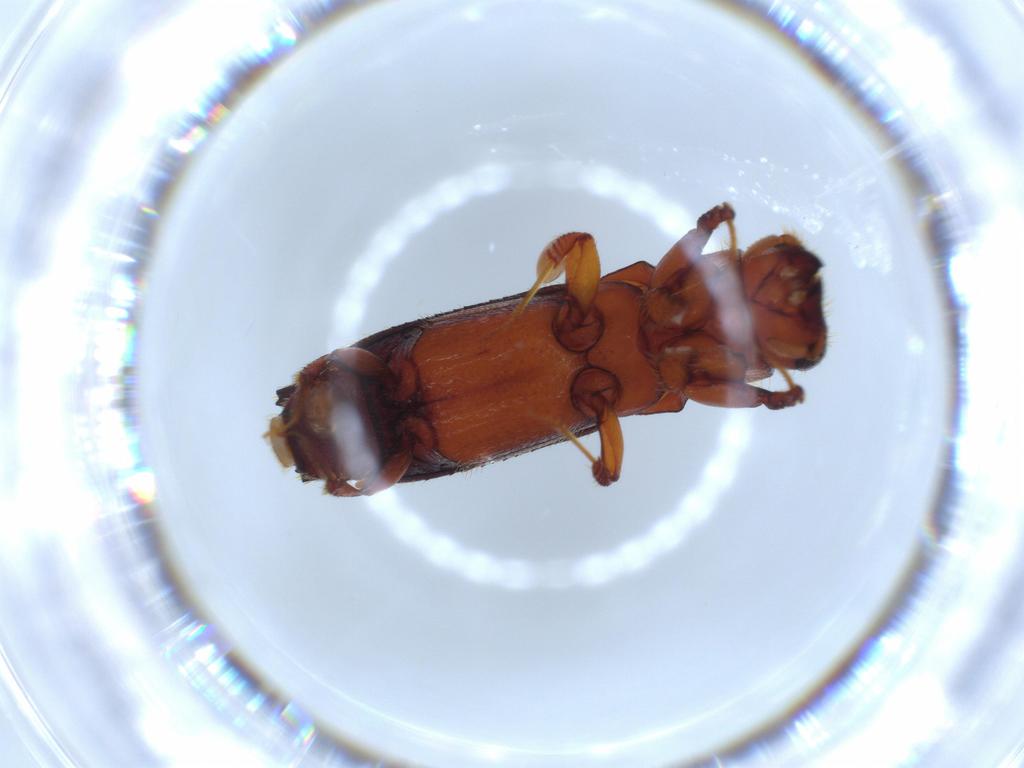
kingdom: Animalia
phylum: Arthropoda
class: Insecta
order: Coleoptera
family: Curculionidae
